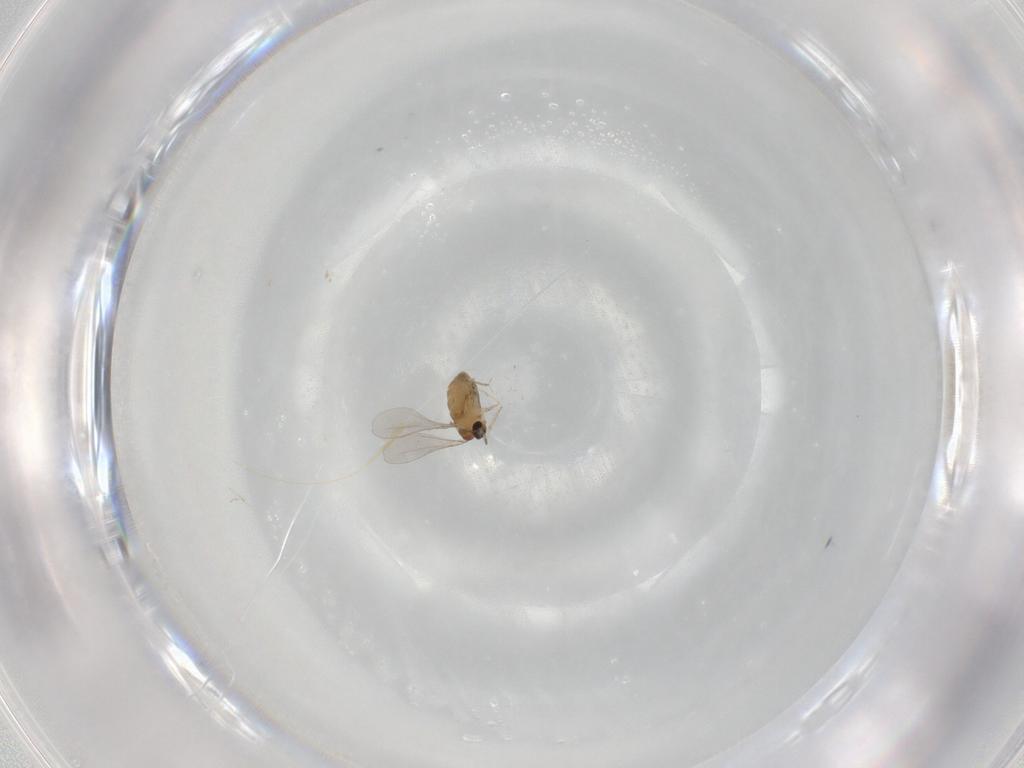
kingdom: Animalia
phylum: Arthropoda
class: Insecta
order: Diptera
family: Cecidomyiidae
